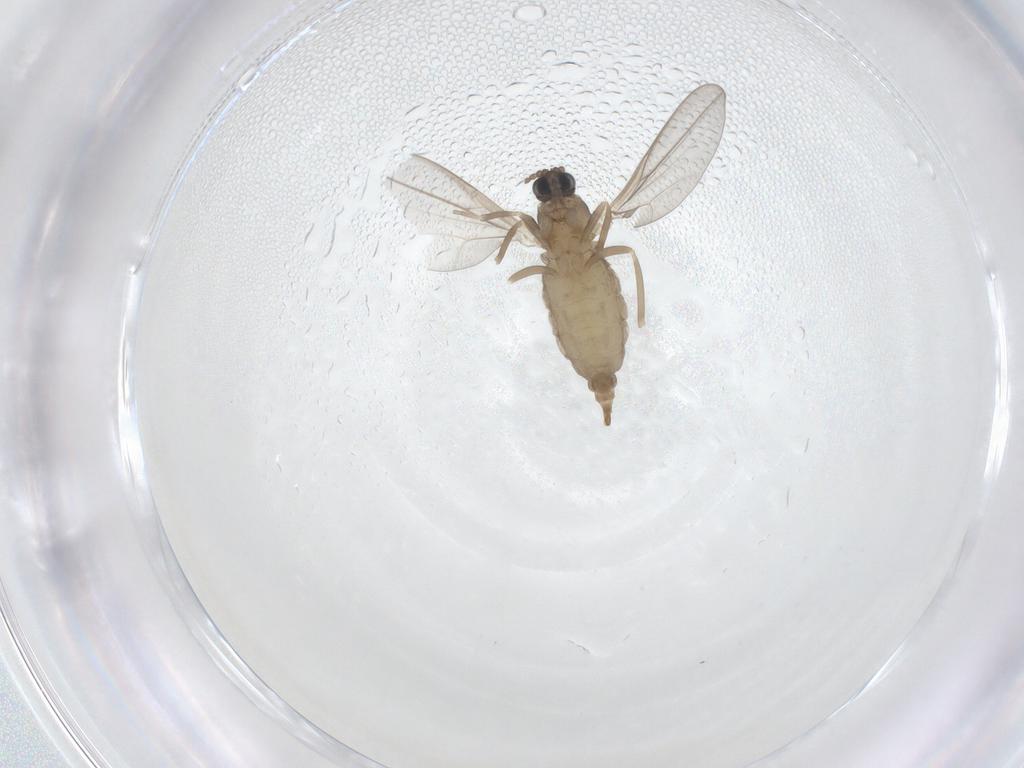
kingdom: Animalia
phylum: Arthropoda
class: Insecta
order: Diptera
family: Cecidomyiidae
